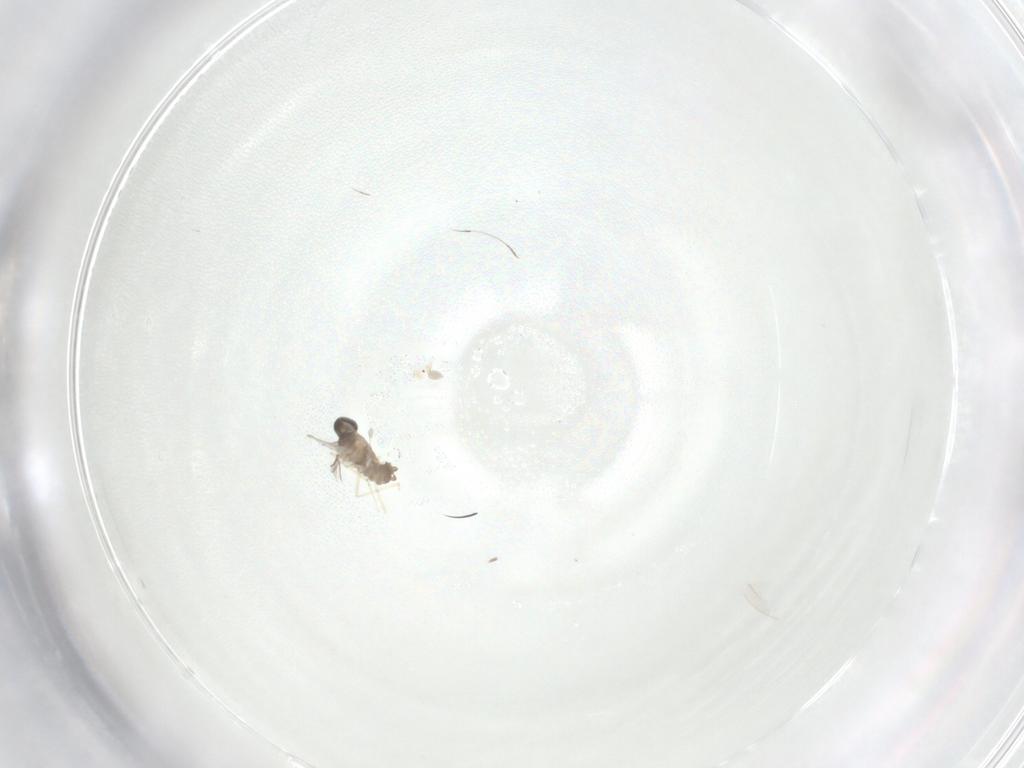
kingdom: Animalia
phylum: Arthropoda
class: Insecta
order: Diptera
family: Cecidomyiidae
